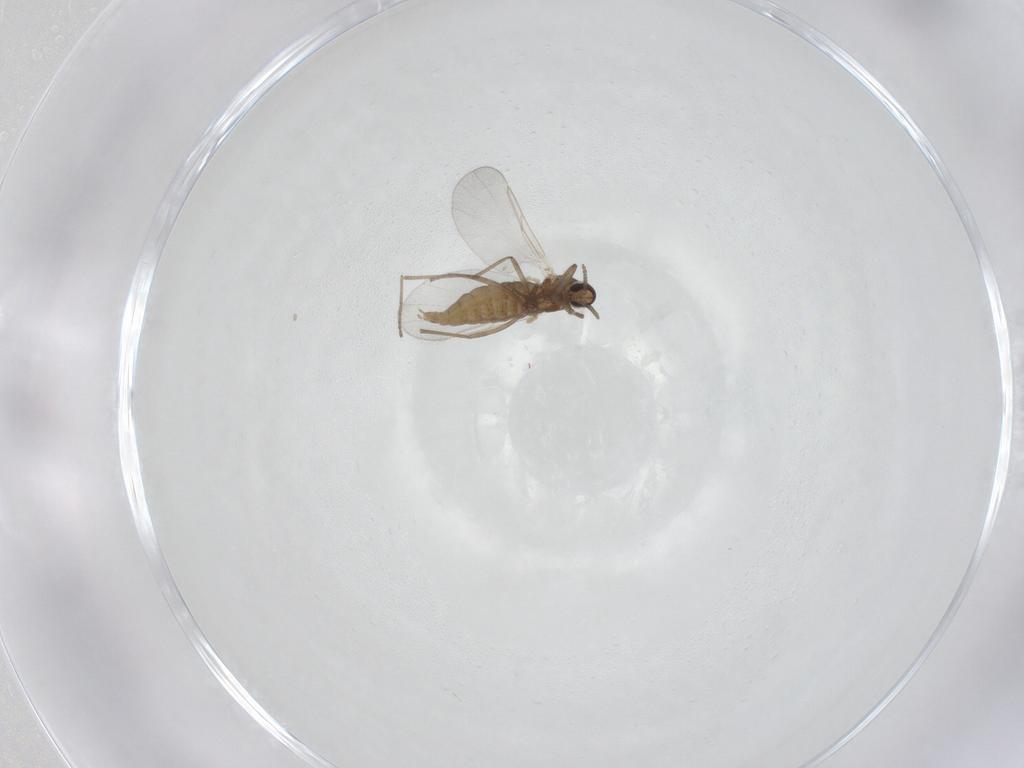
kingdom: Animalia
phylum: Arthropoda
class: Insecta
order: Diptera
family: Cecidomyiidae
